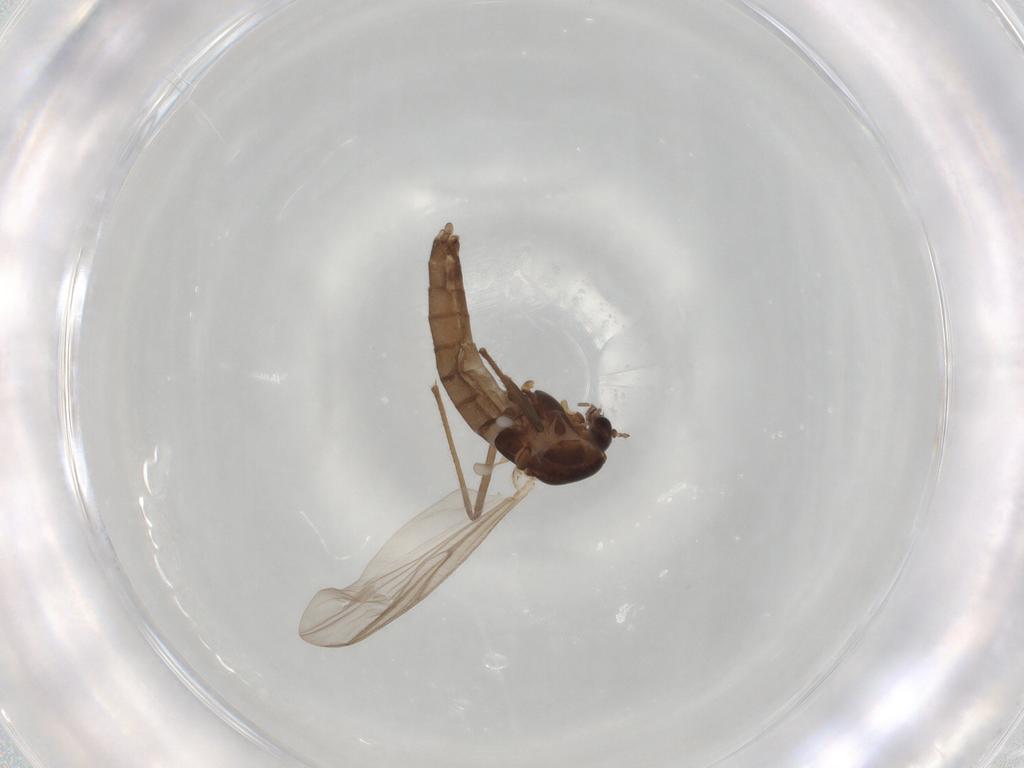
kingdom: Animalia
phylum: Arthropoda
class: Insecta
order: Diptera
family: Chironomidae
